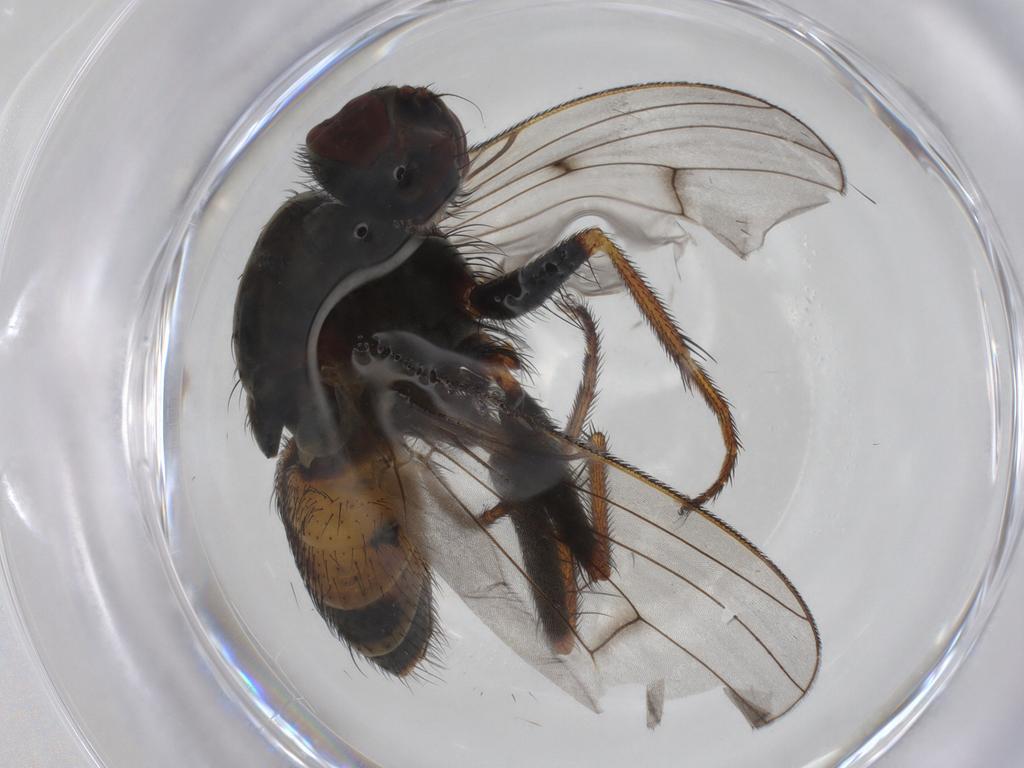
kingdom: Animalia
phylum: Arthropoda
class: Insecta
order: Diptera
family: Muscidae
